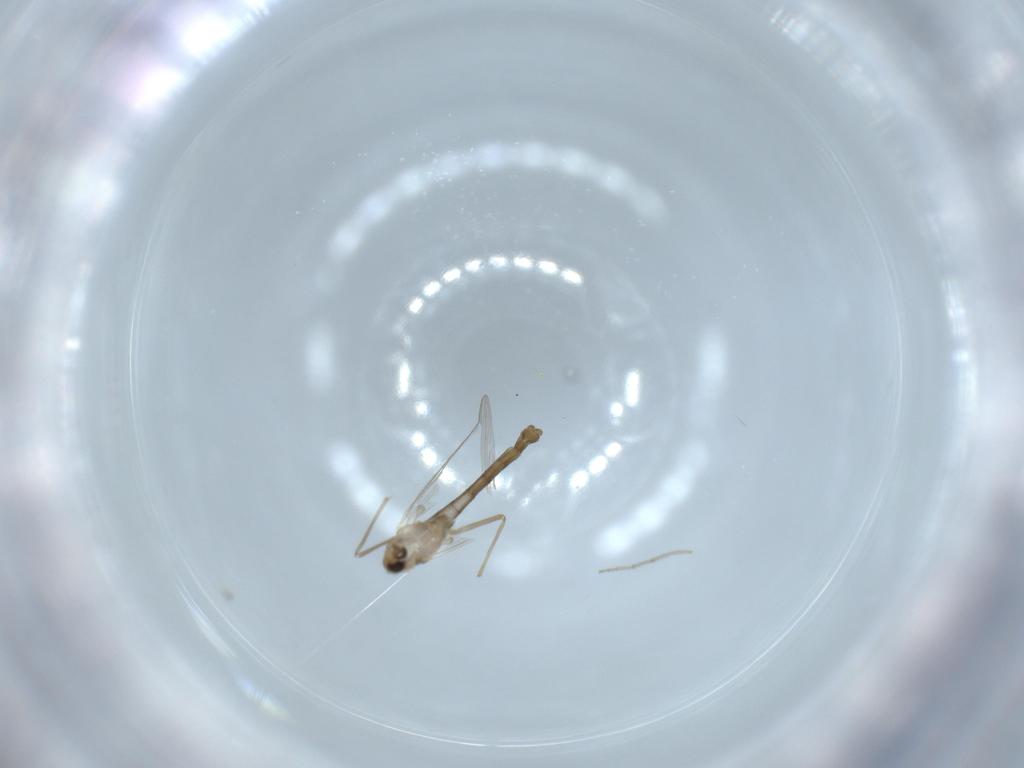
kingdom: Animalia
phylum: Arthropoda
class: Insecta
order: Diptera
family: Chironomidae
